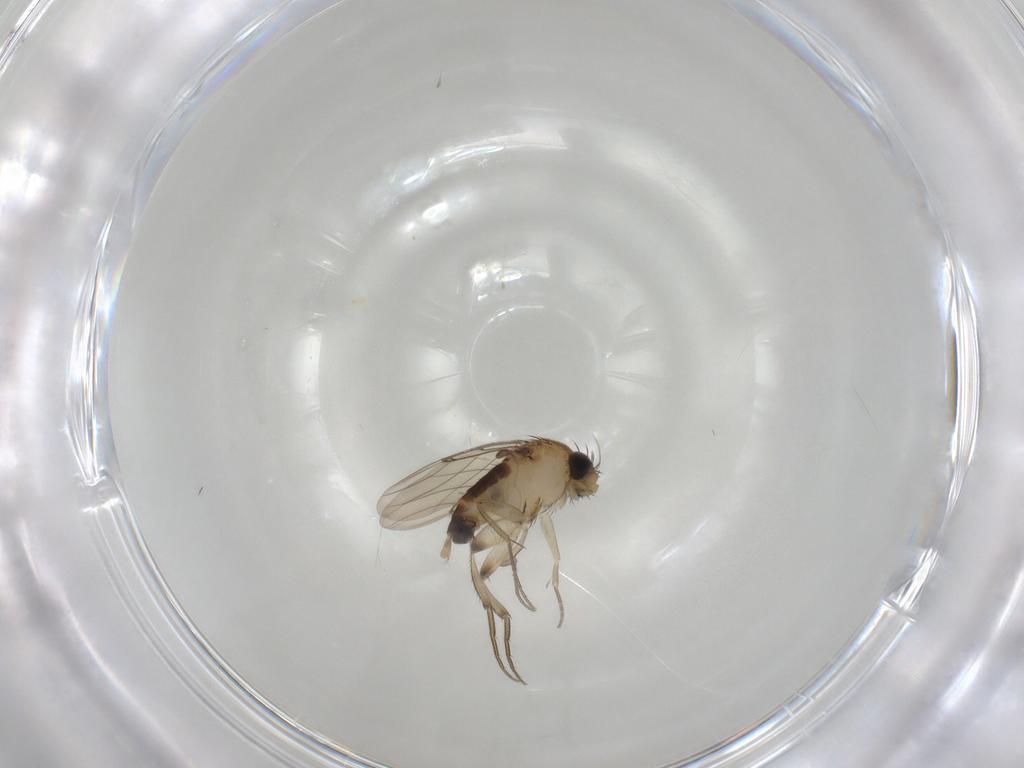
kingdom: Animalia
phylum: Arthropoda
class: Insecta
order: Diptera
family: Phoridae
